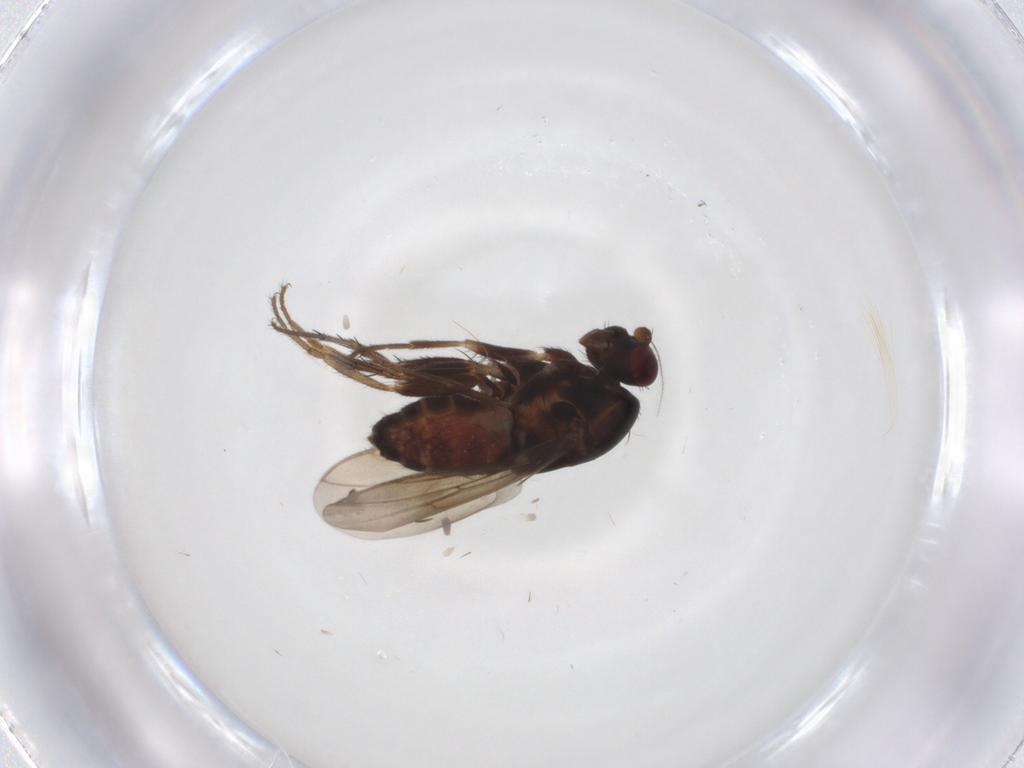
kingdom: Animalia
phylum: Arthropoda
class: Insecta
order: Diptera
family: Sphaeroceridae
